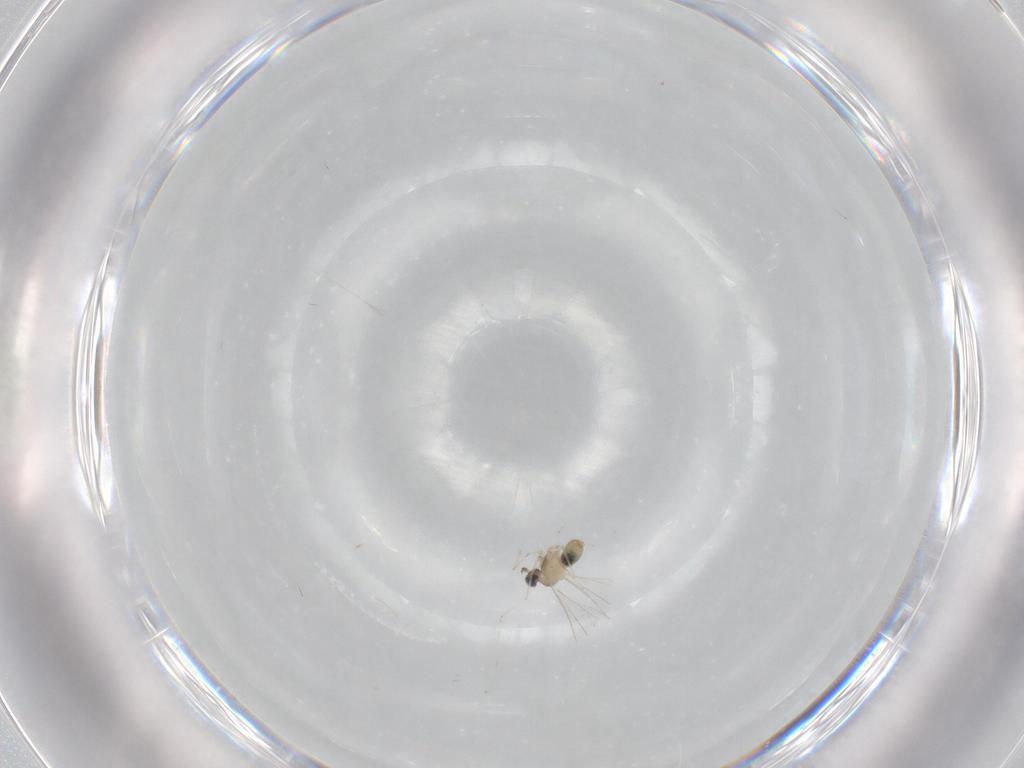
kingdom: Animalia
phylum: Arthropoda
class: Insecta
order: Diptera
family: Cecidomyiidae
